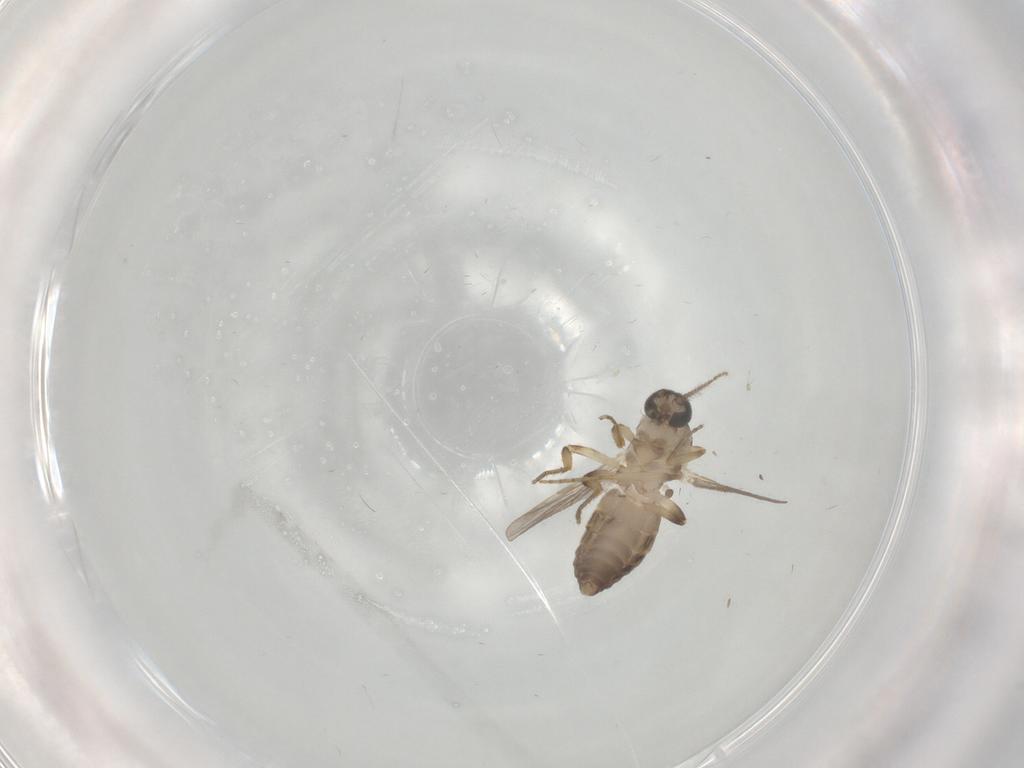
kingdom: Animalia
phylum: Arthropoda
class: Insecta
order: Diptera
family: Ceratopogonidae
